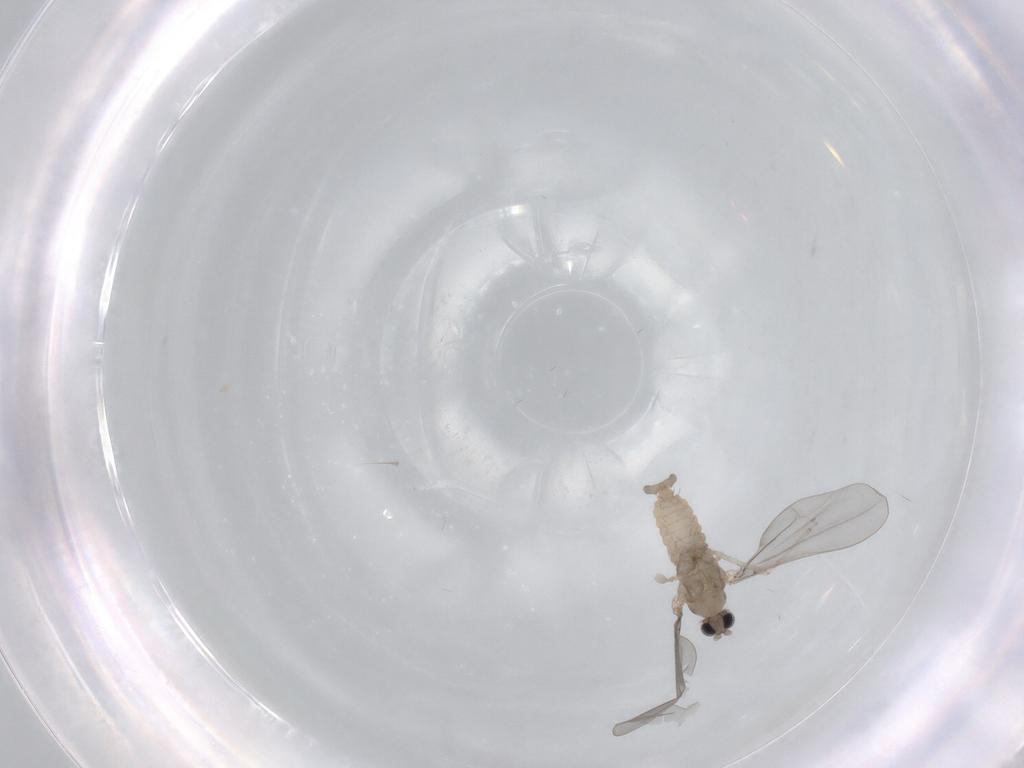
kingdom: Animalia
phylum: Arthropoda
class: Insecta
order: Diptera
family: Cecidomyiidae
